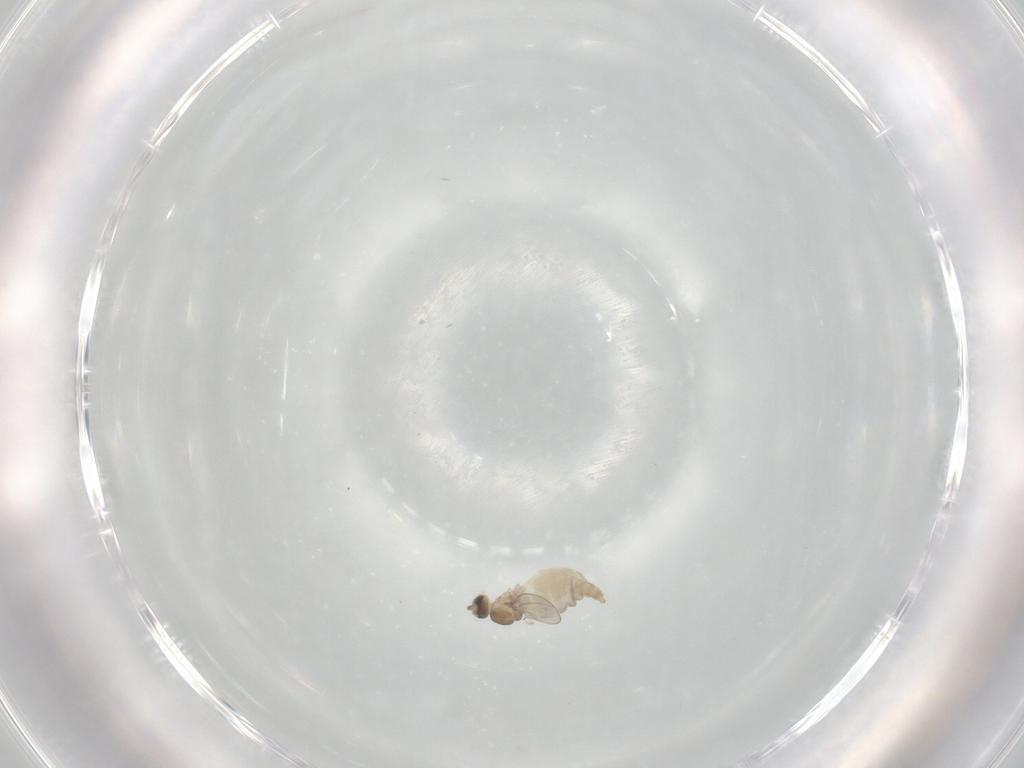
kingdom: Animalia
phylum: Arthropoda
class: Insecta
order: Diptera
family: Cecidomyiidae
